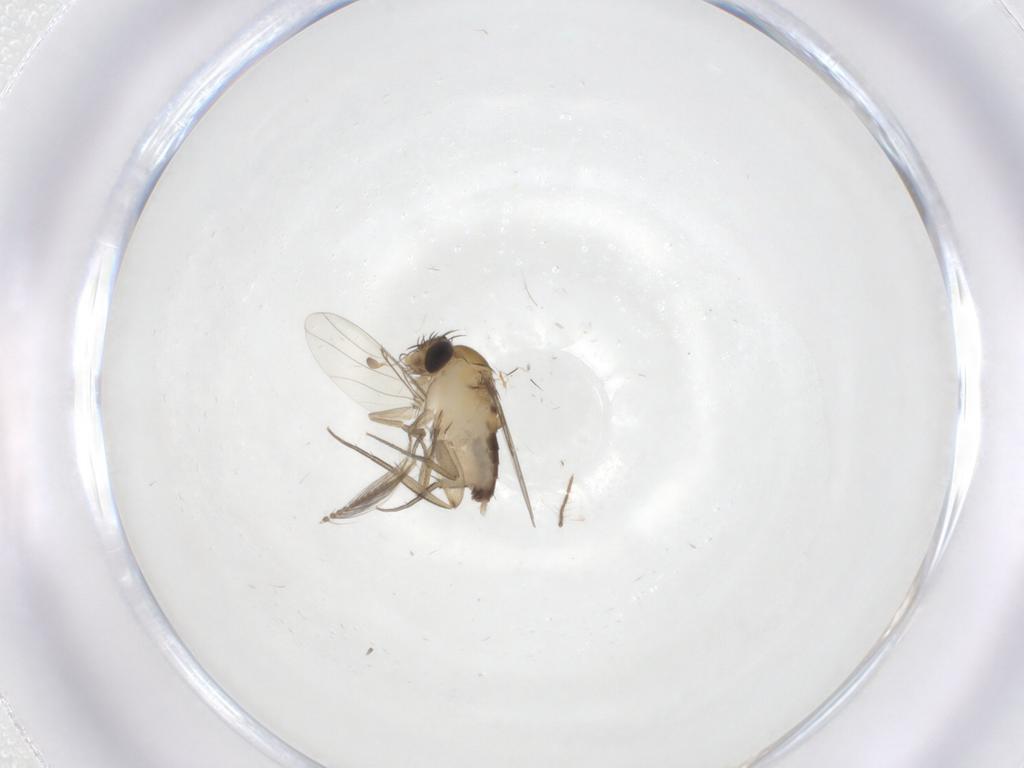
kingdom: Animalia
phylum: Arthropoda
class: Insecta
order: Diptera
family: Phoridae
